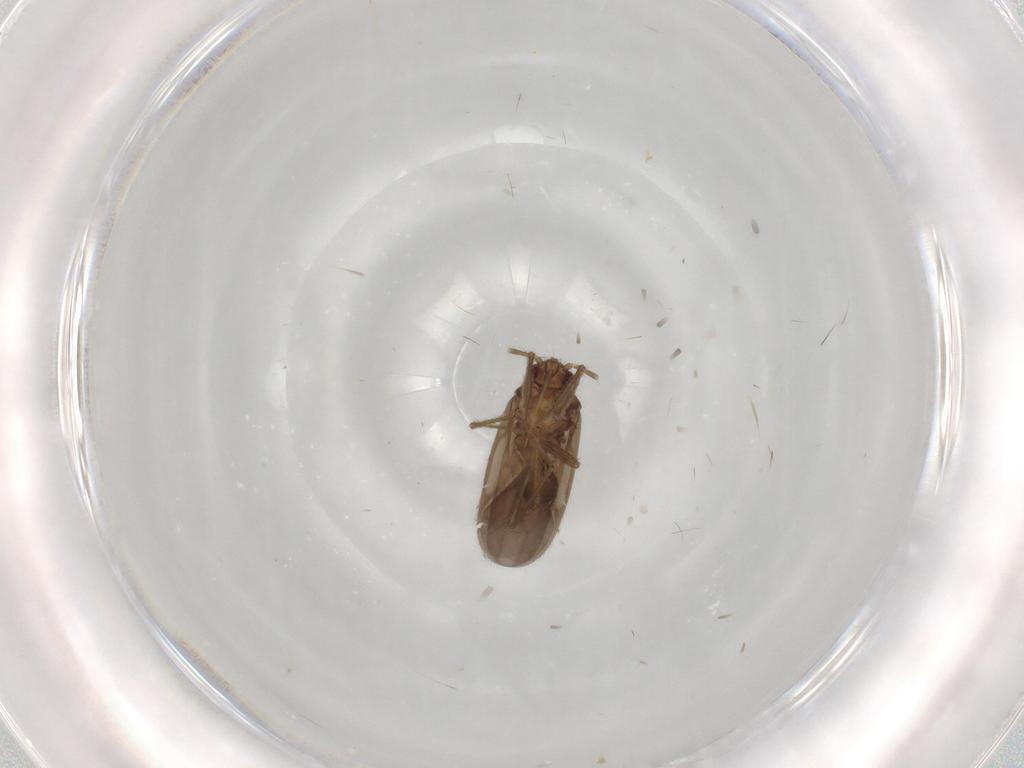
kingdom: Animalia
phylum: Arthropoda
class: Insecta
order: Hemiptera
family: Ceratocombidae
